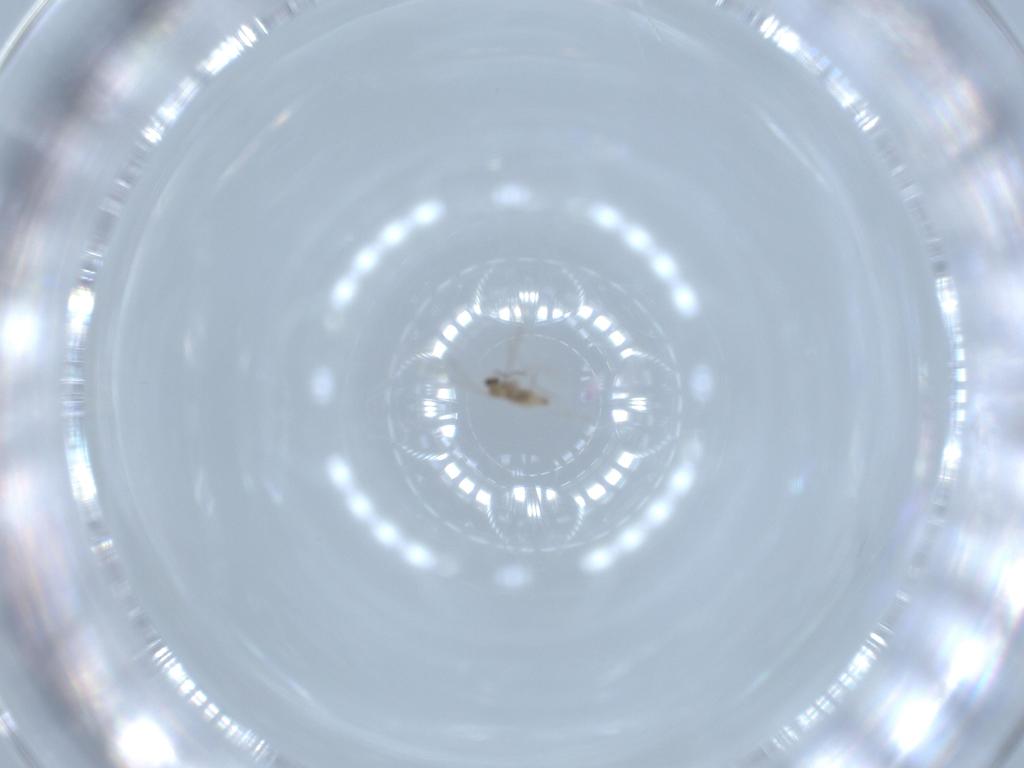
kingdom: Animalia
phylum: Arthropoda
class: Insecta
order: Diptera
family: Cecidomyiidae
